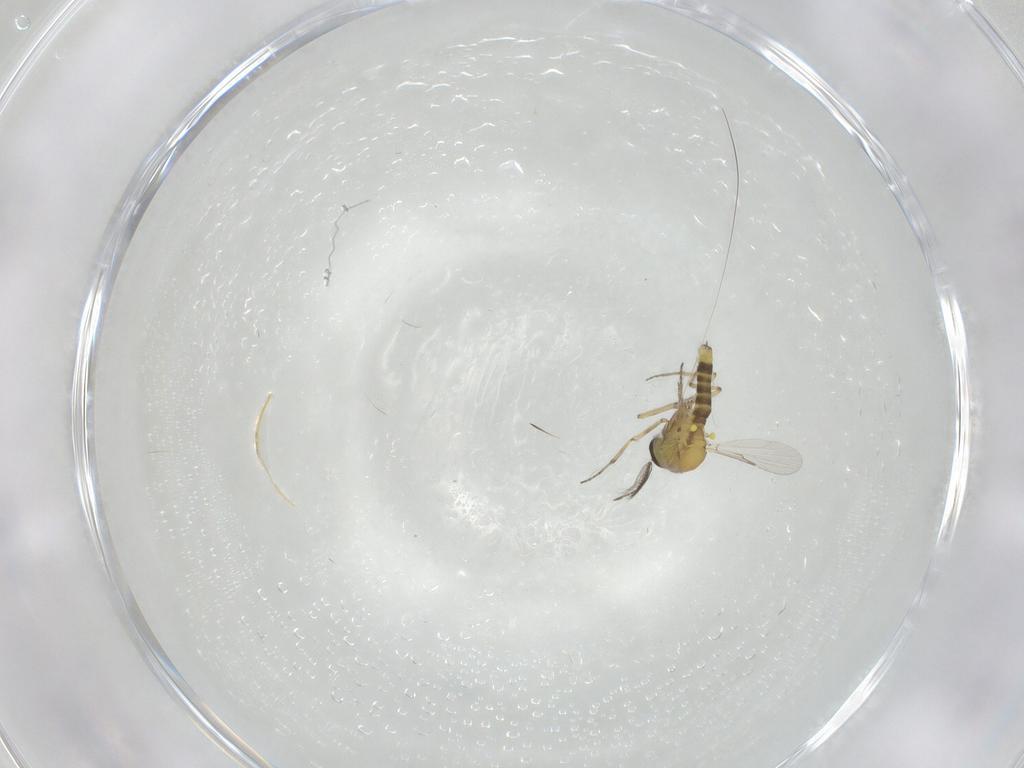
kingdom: Animalia
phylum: Arthropoda
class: Insecta
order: Diptera
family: Ceratopogonidae
